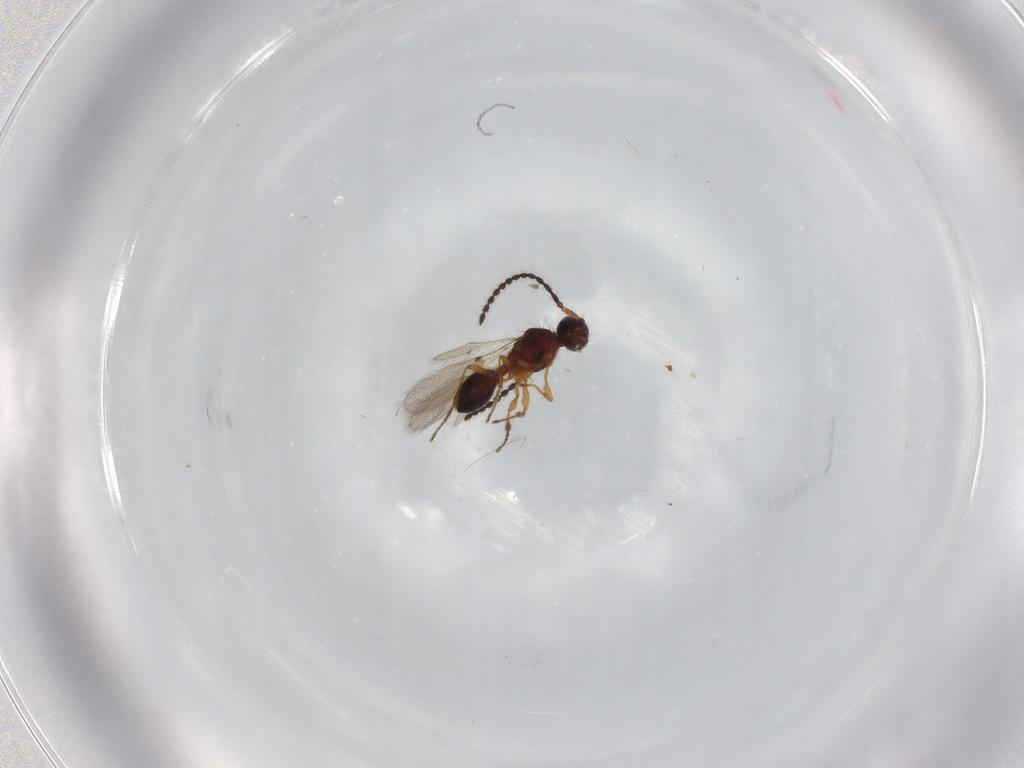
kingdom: Animalia
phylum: Arthropoda
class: Insecta
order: Hymenoptera
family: Diapriidae
